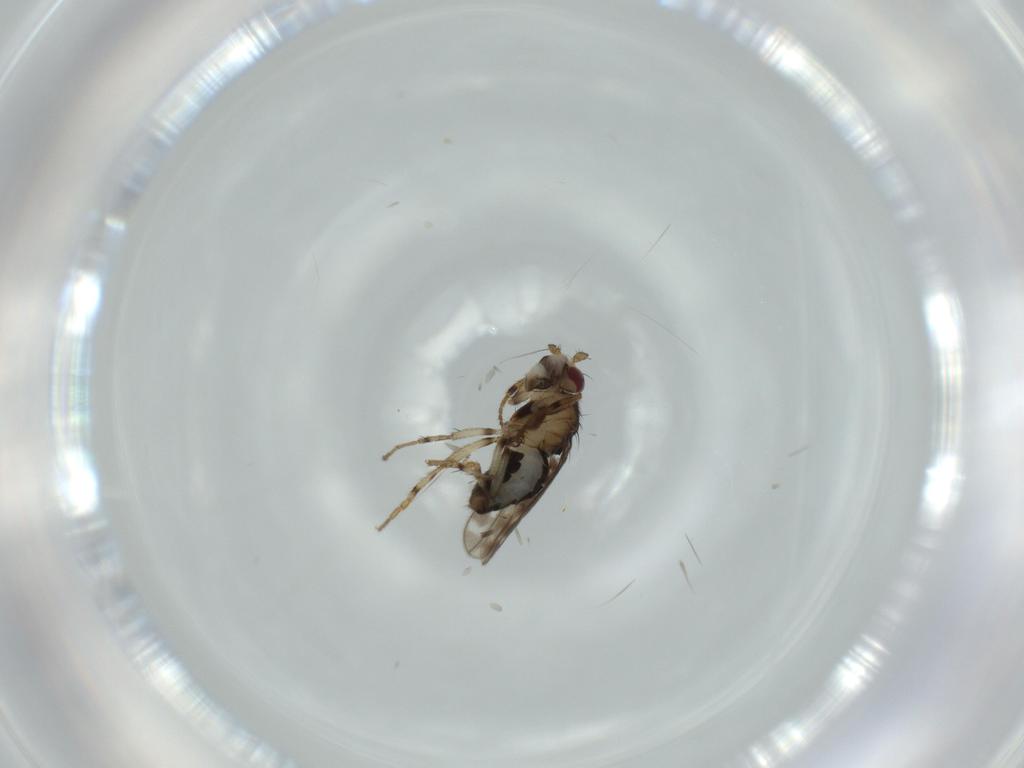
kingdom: Animalia
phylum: Arthropoda
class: Insecta
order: Diptera
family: Sphaeroceridae
